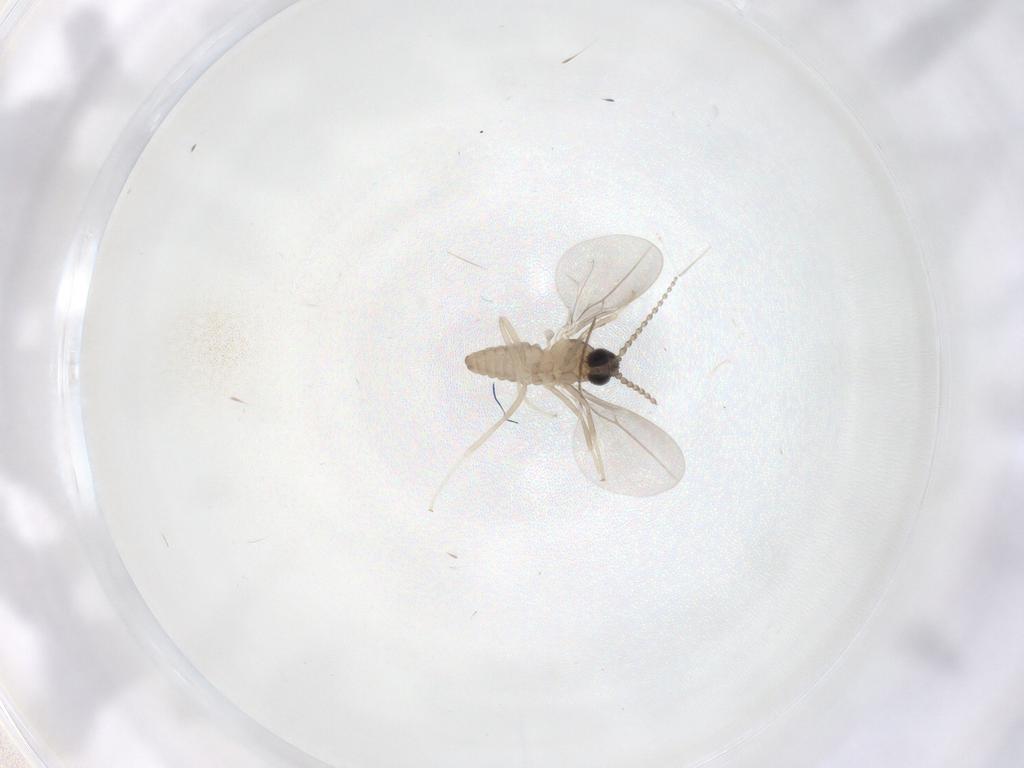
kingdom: Animalia
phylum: Arthropoda
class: Insecta
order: Diptera
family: Cecidomyiidae
